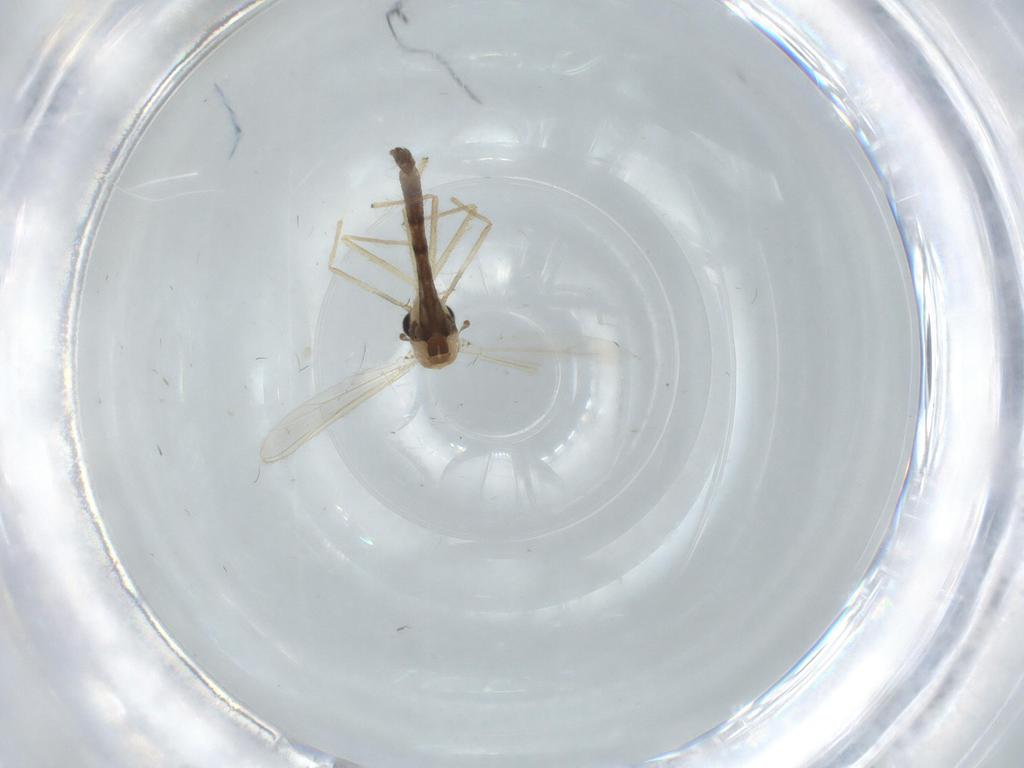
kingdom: Animalia
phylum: Arthropoda
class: Insecta
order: Diptera
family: Chironomidae
